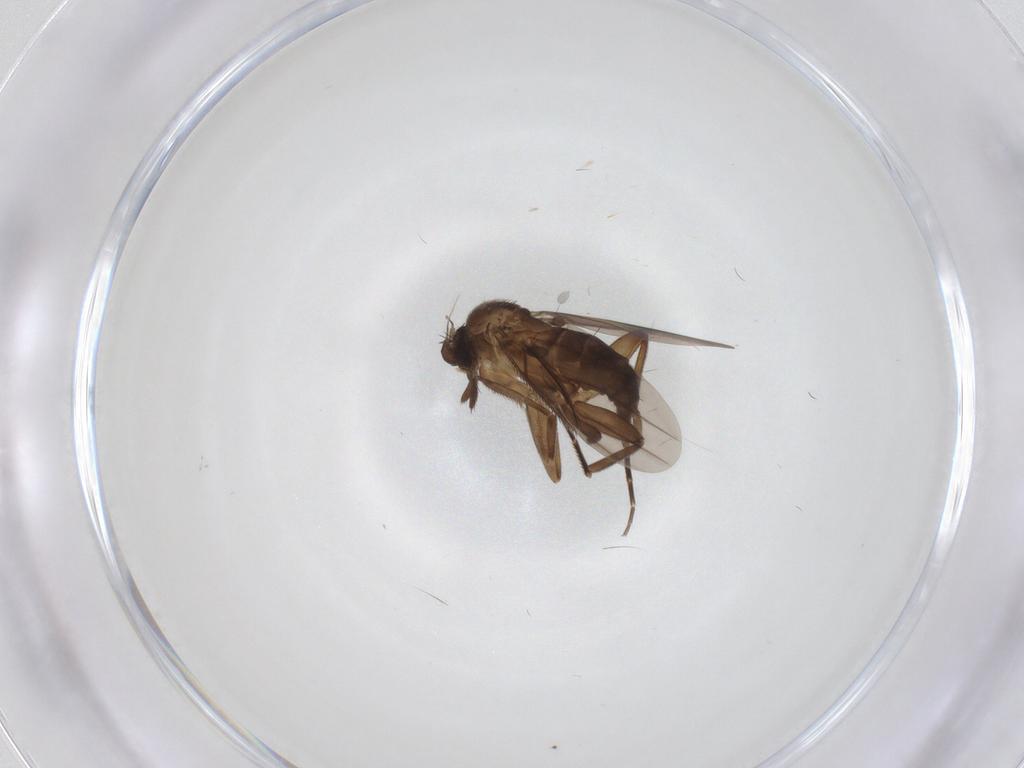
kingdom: Animalia
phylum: Arthropoda
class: Insecta
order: Diptera
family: Phoridae
